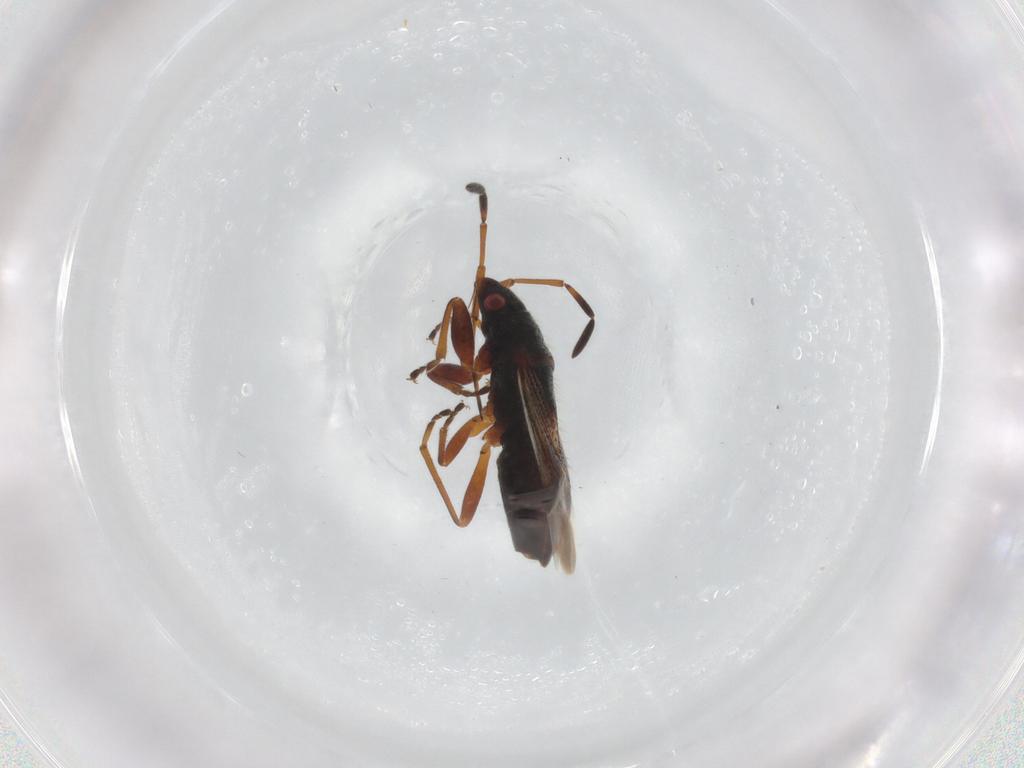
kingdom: Animalia
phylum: Arthropoda
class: Insecta
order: Hemiptera
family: Rhyparochromidae
